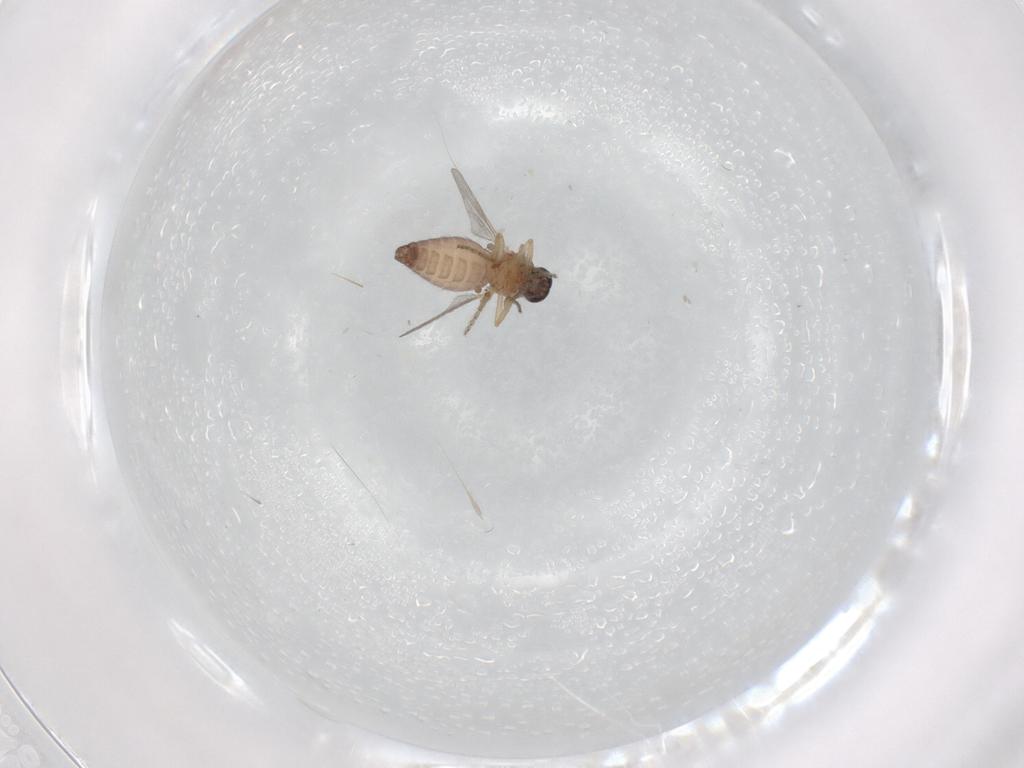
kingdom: Animalia
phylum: Arthropoda
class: Insecta
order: Diptera
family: Ceratopogonidae
